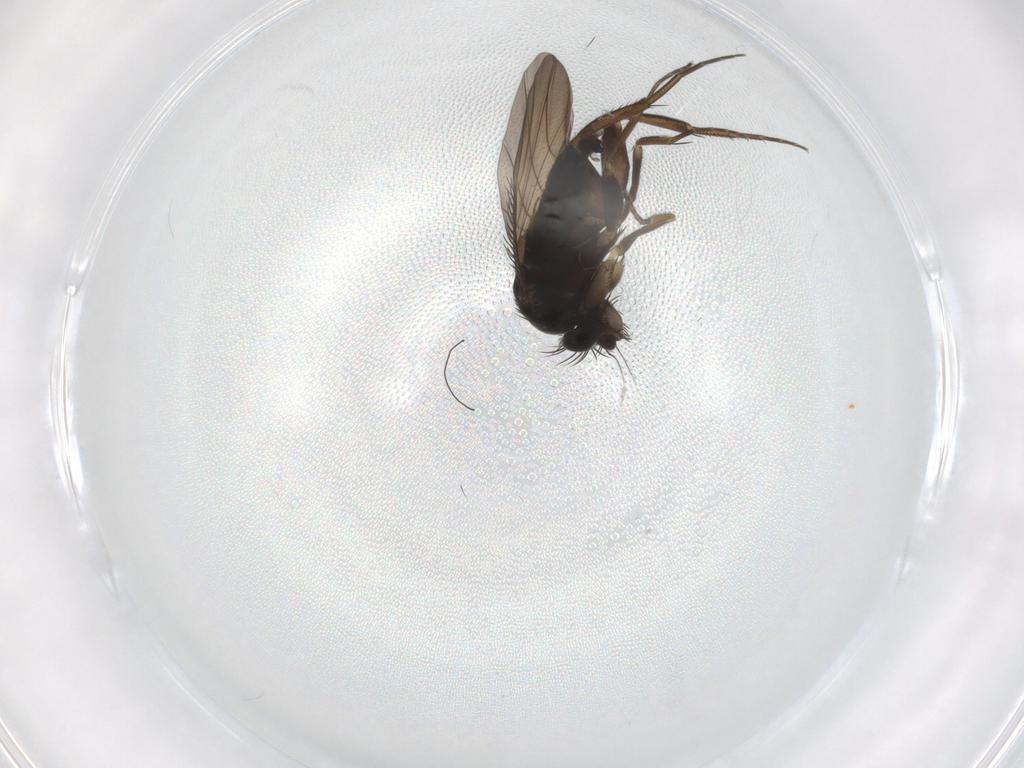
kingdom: Animalia
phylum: Arthropoda
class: Insecta
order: Diptera
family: Phoridae
